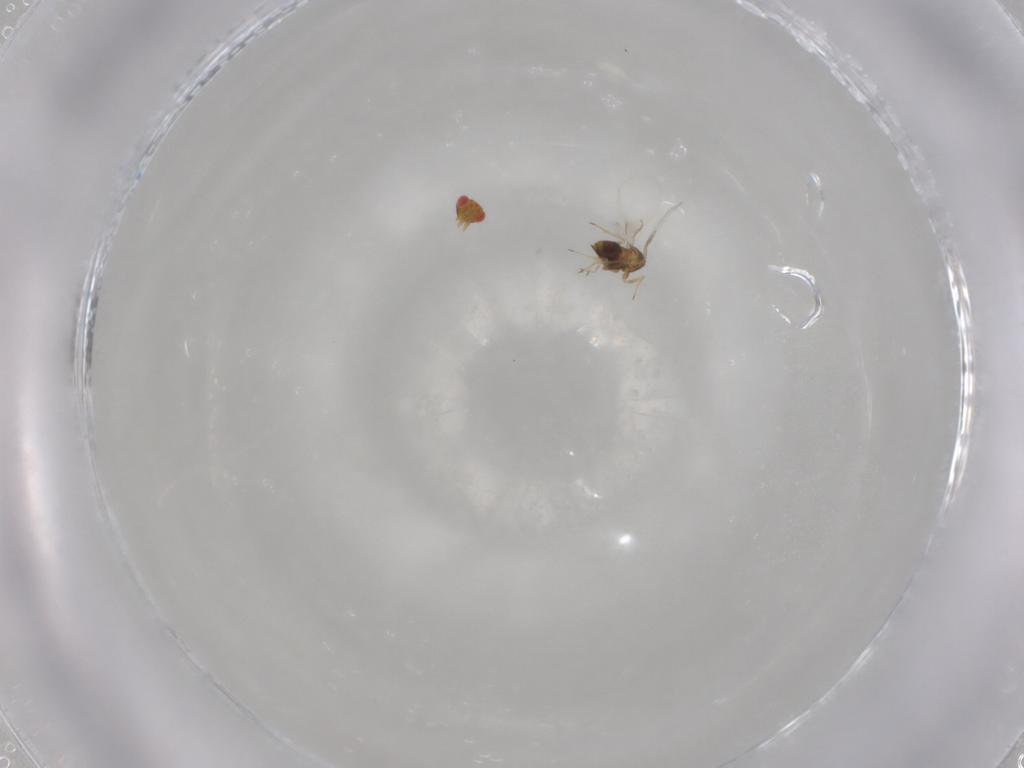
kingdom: Animalia
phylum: Arthropoda
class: Insecta
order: Hymenoptera
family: Trichogrammatidae
